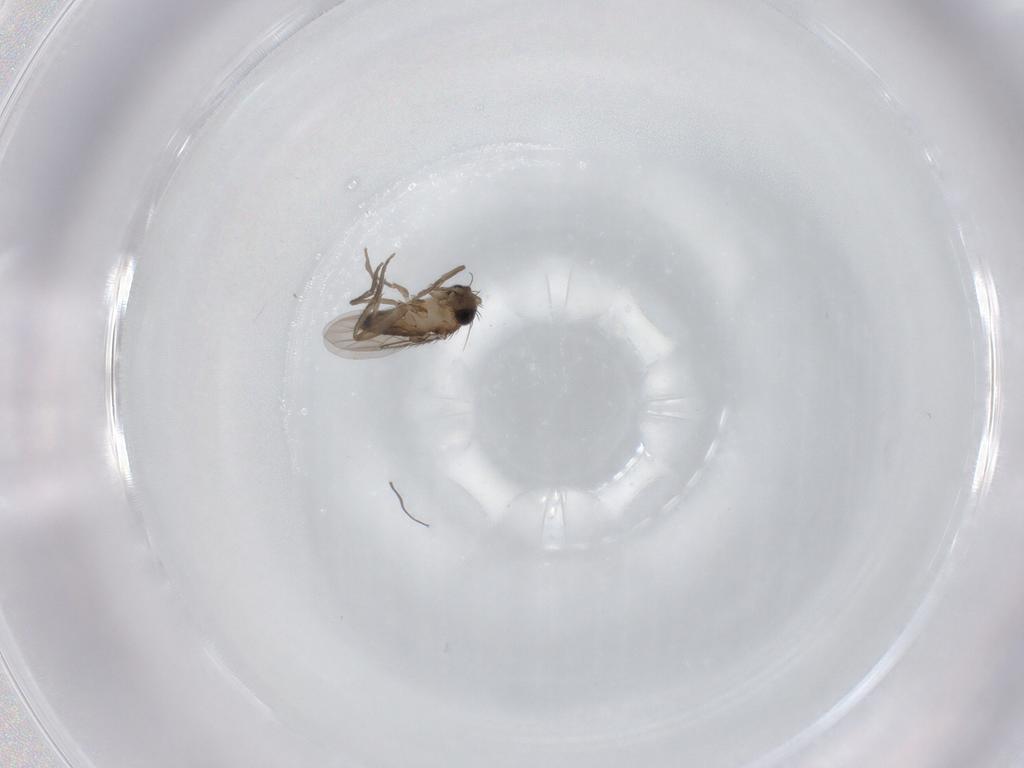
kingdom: Animalia
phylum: Arthropoda
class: Insecta
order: Diptera
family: Phoridae
